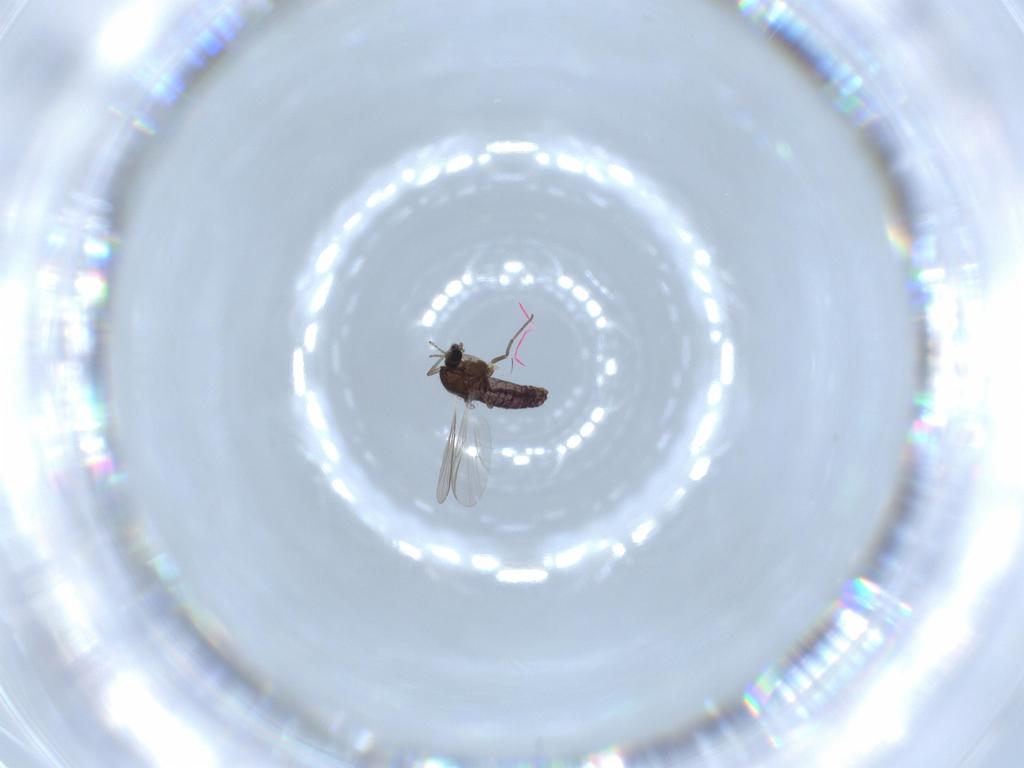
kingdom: Animalia
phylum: Arthropoda
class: Insecta
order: Diptera
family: Chironomidae
